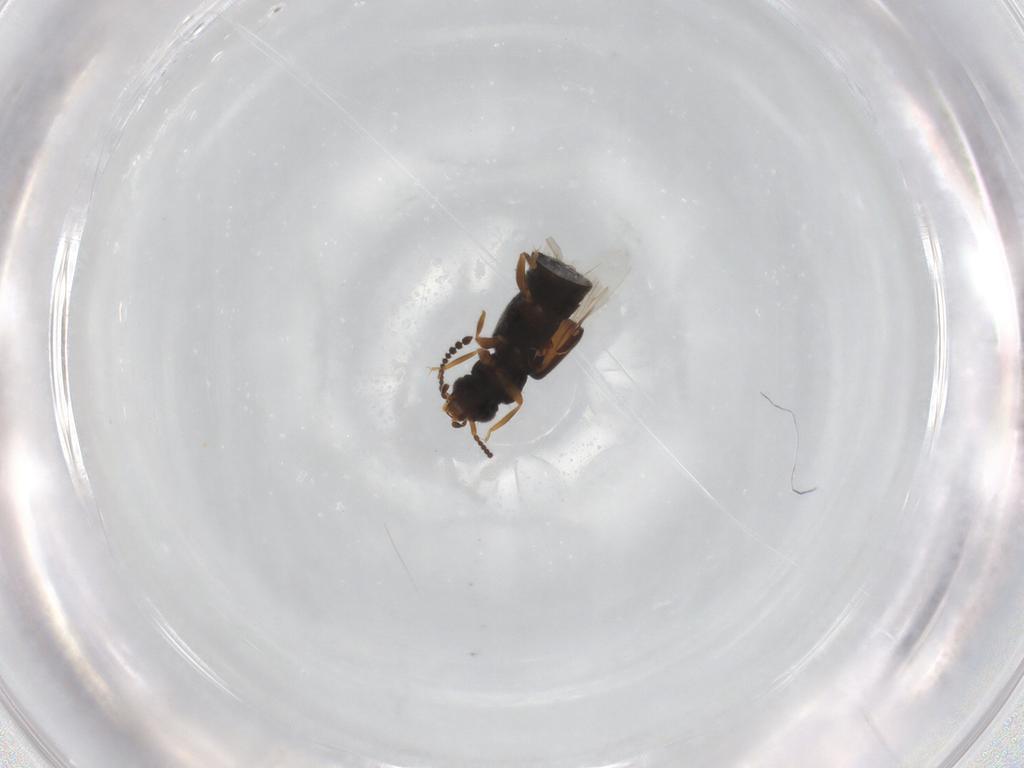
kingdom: Animalia
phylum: Arthropoda
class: Insecta
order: Coleoptera
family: Staphylinidae
